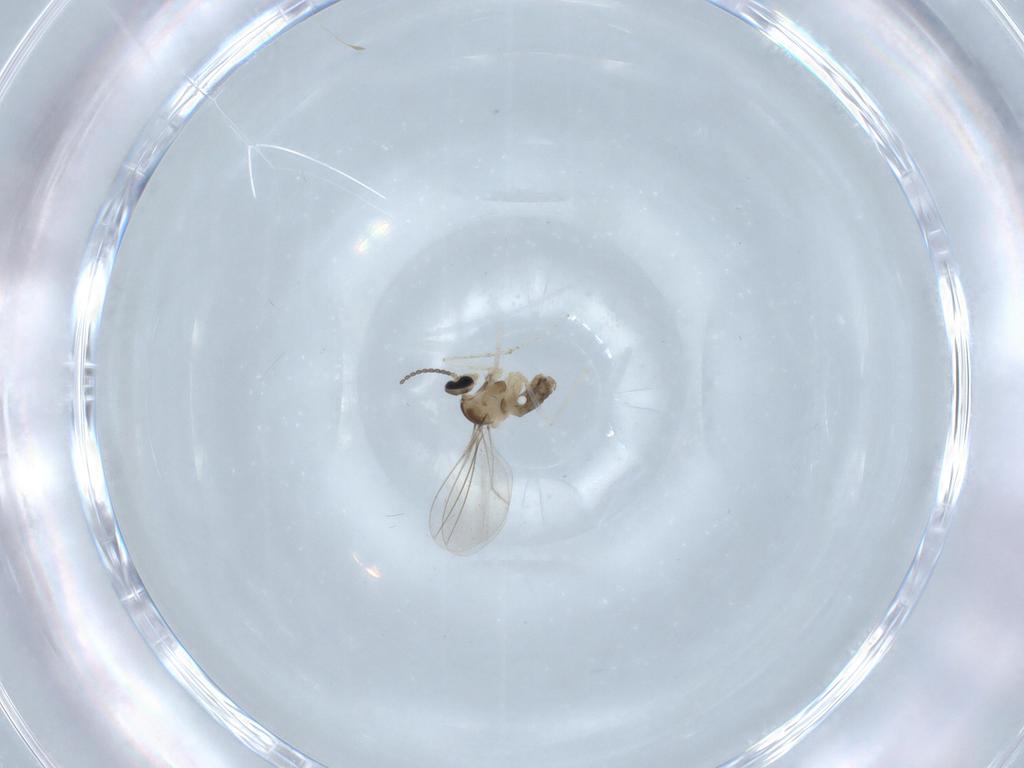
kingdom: Animalia
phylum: Arthropoda
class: Insecta
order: Diptera
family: Cecidomyiidae
